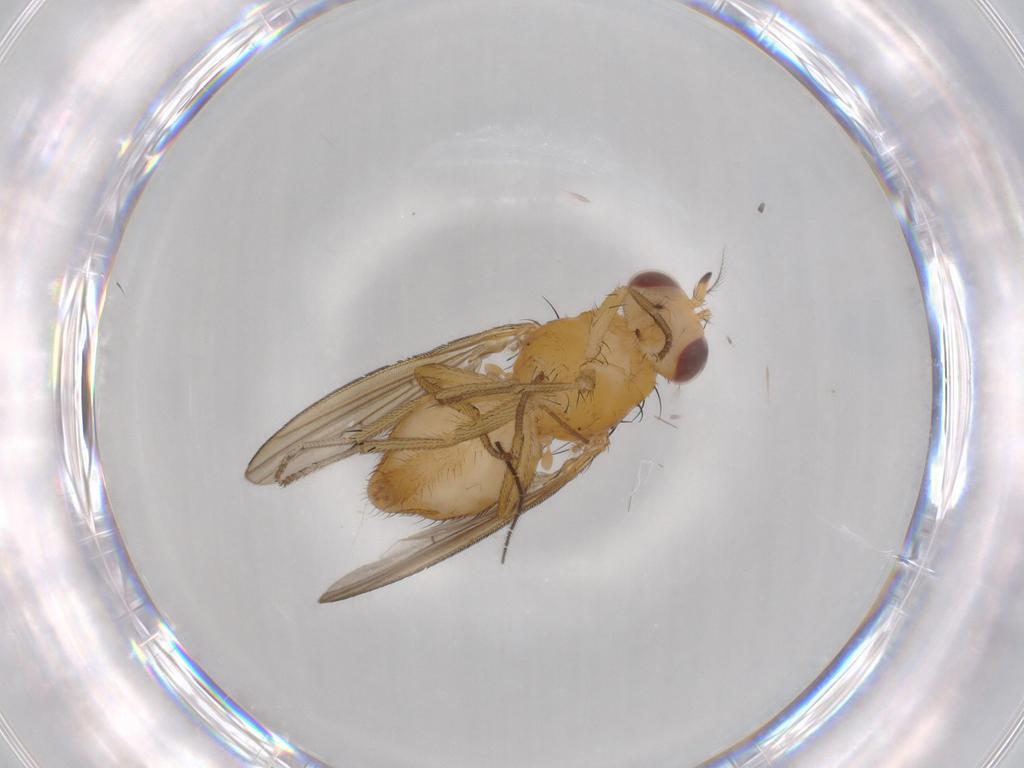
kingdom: Animalia
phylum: Arthropoda
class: Insecta
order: Diptera
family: Lauxaniidae
